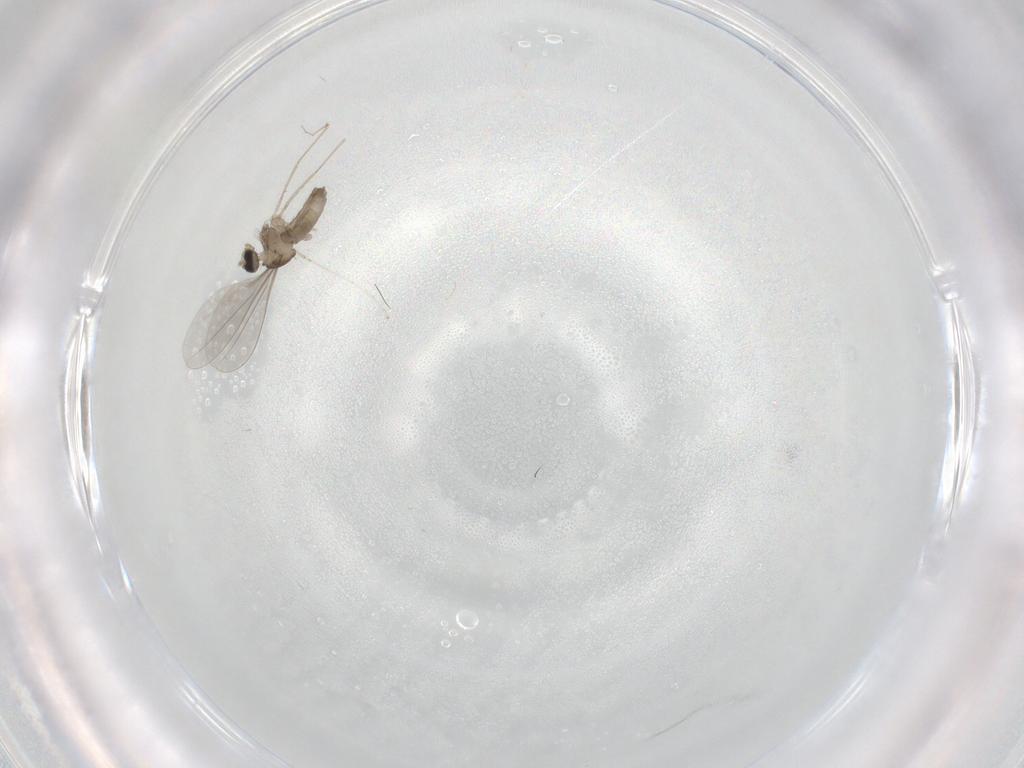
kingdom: Animalia
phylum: Arthropoda
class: Insecta
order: Diptera
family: Cecidomyiidae
